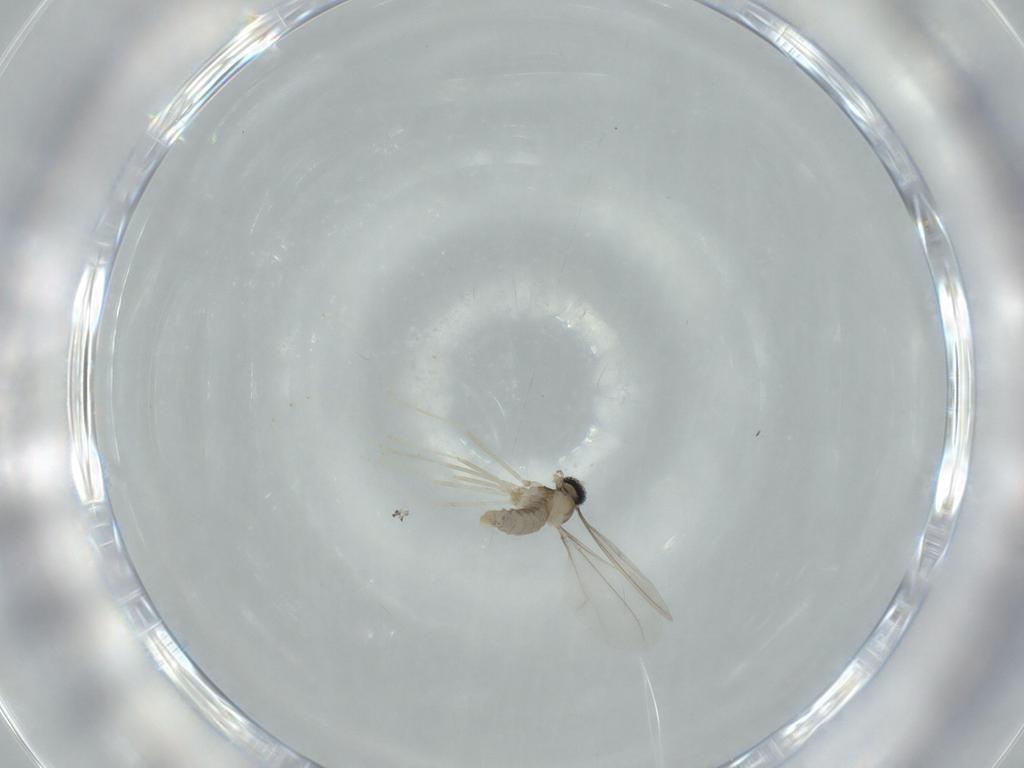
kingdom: Animalia
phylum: Arthropoda
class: Insecta
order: Diptera
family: Cecidomyiidae
